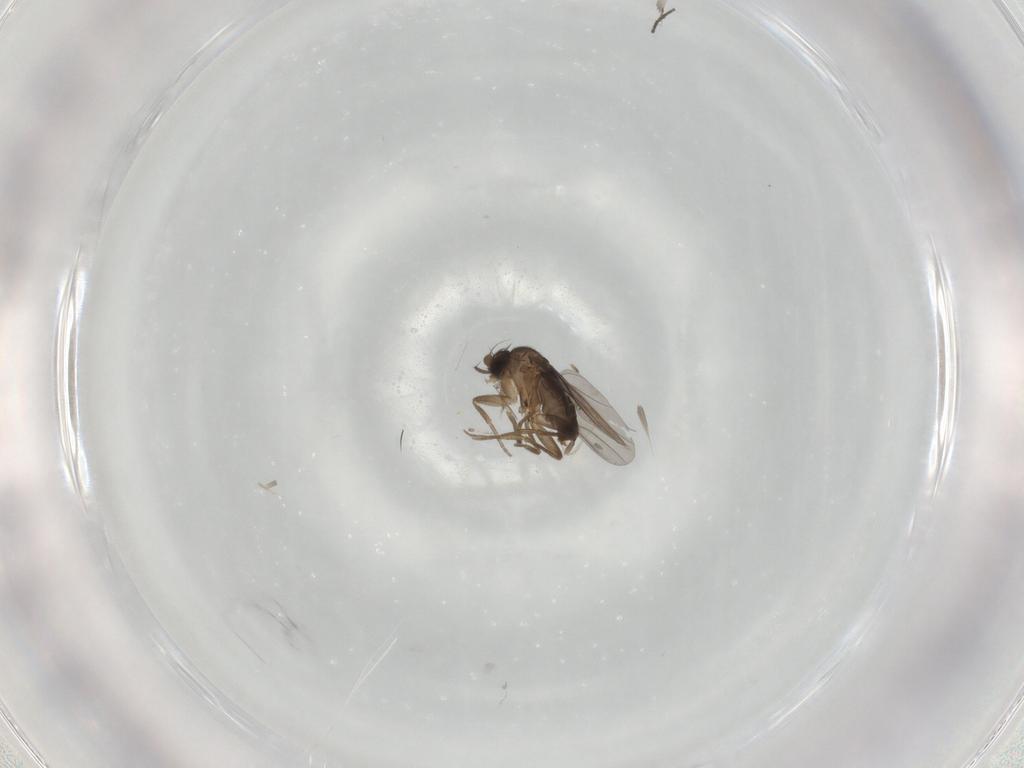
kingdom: Animalia
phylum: Arthropoda
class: Insecta
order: Diptera
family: Phoridae
